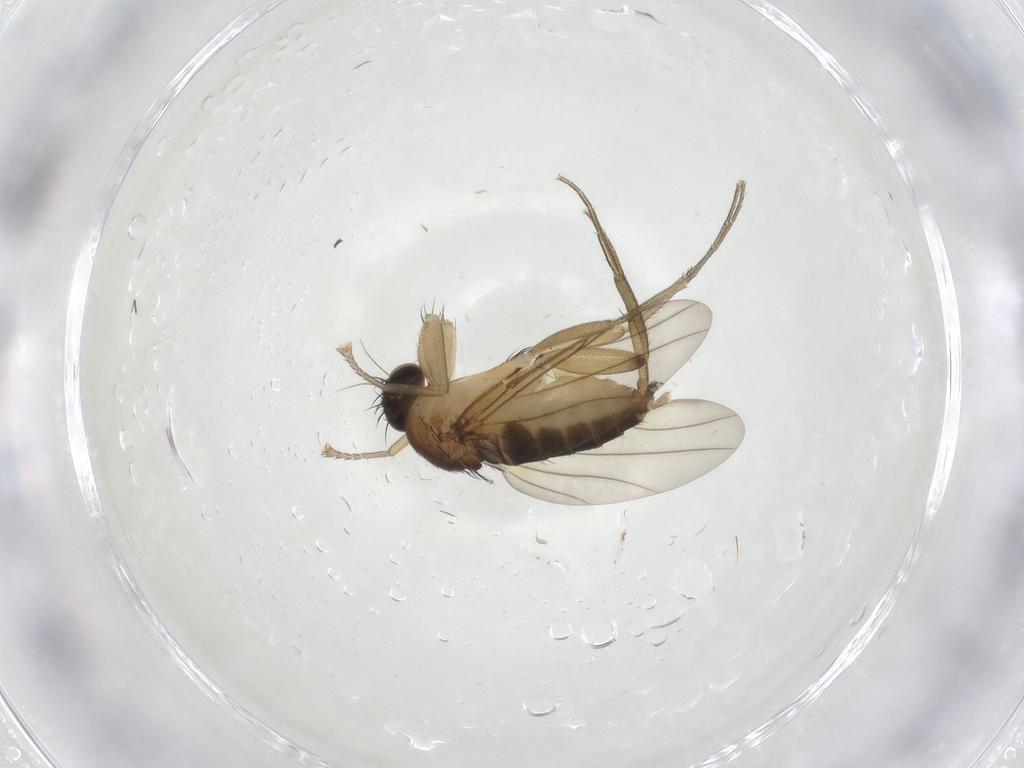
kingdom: Animalia
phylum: Arthropoda
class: Insecta
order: Diptera
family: Phoridae
